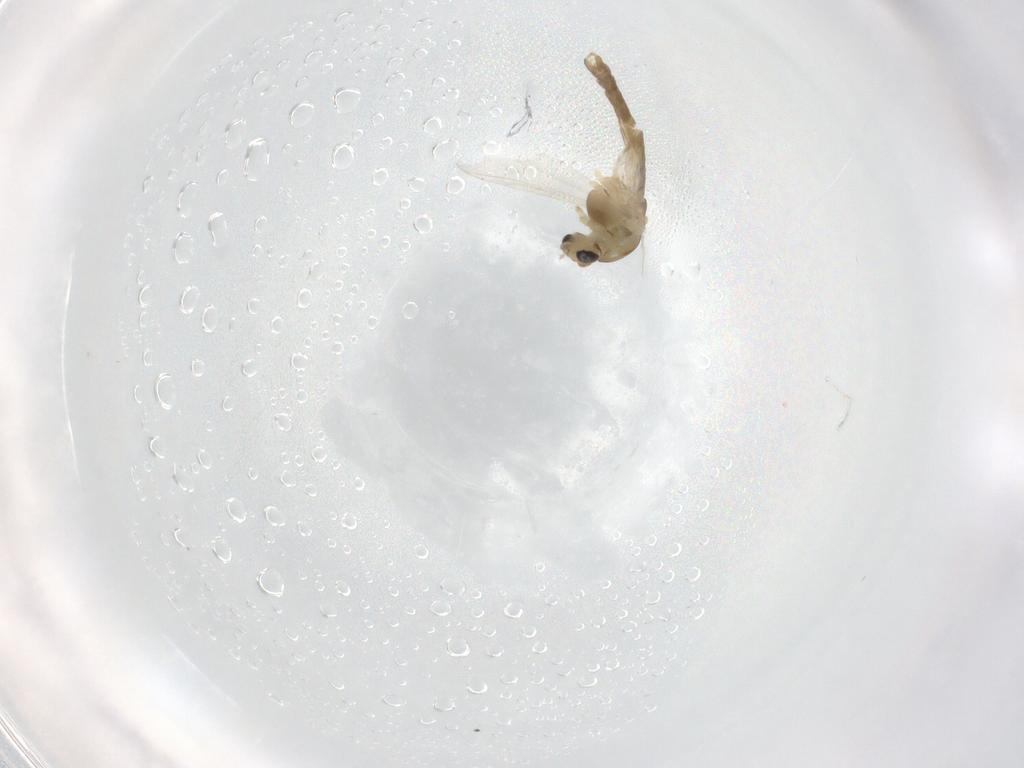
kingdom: Animalia
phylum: Arthropoda
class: Insecta
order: Diptera
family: Chironomidae
